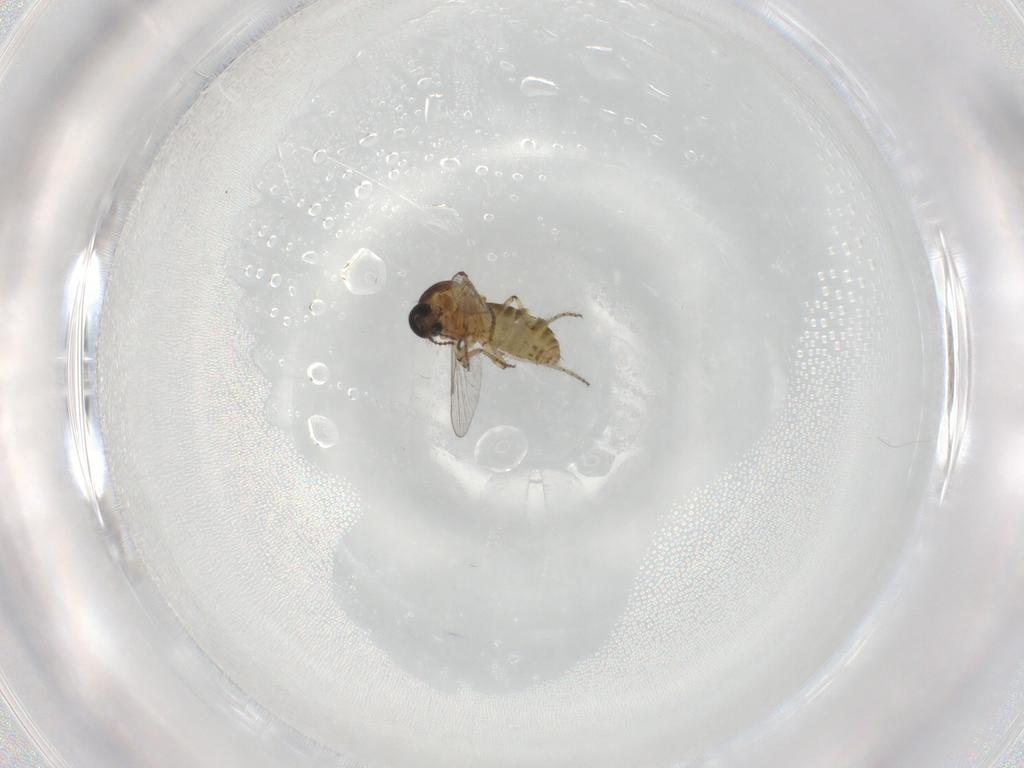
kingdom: Animalia
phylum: Arthropoda
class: Insecta
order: Diptera
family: Ceratopogonidae
